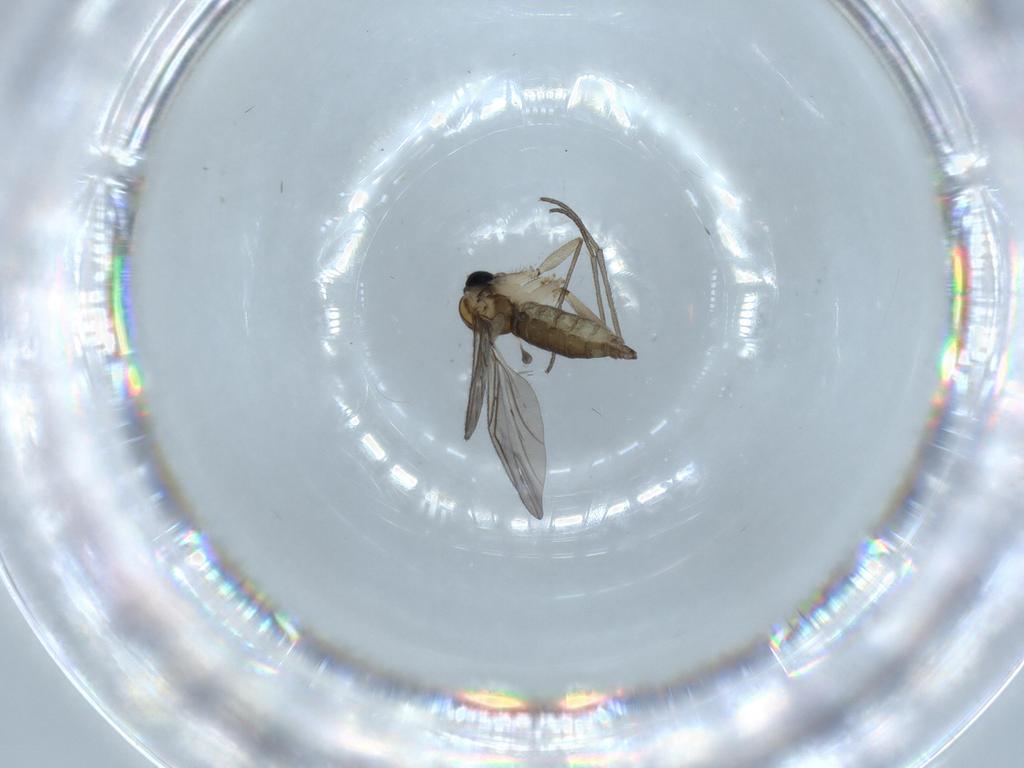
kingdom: Animalia
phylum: Arthropoda
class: Insecta
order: Diptera
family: Sciaridae
